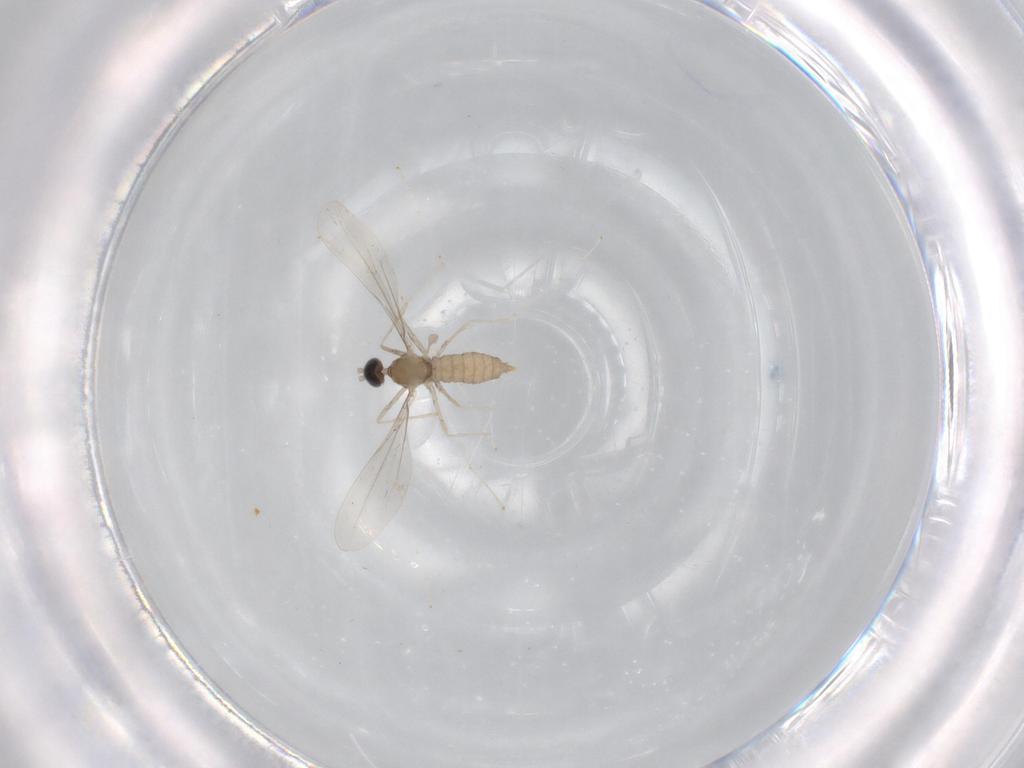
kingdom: Animalia
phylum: Arthropoda
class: Insecta
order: Diptera
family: Cecidomyiidae
